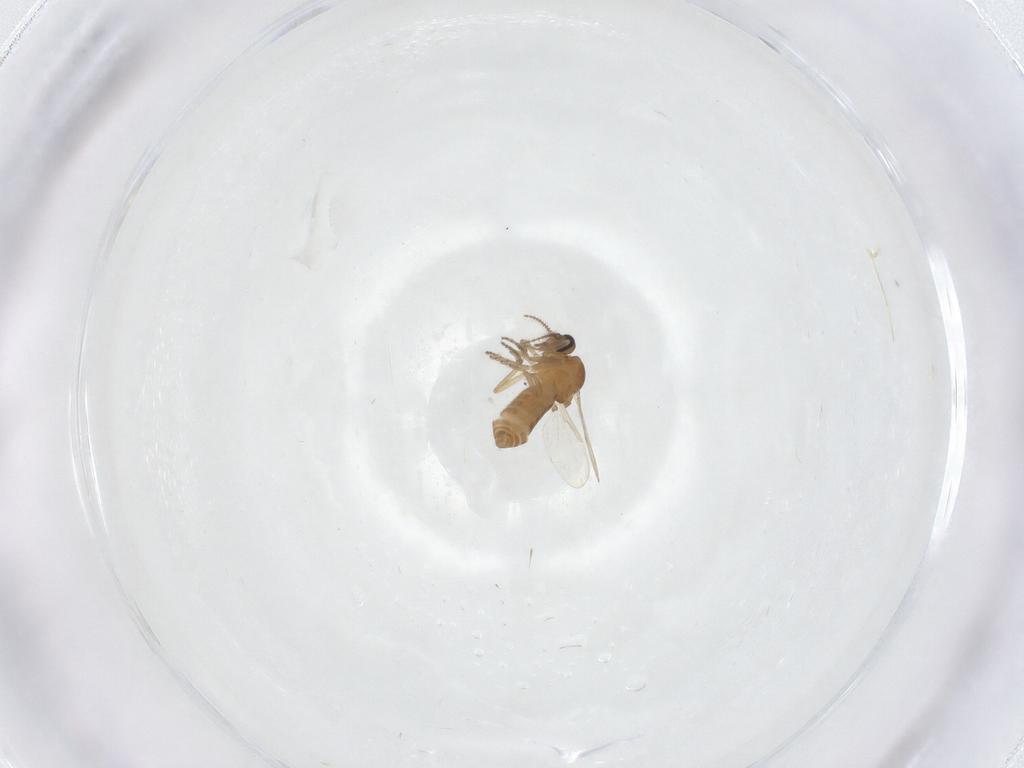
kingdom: Animalia
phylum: Arthropoda
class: Insecta
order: Diptera
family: Ceratopogonidae
